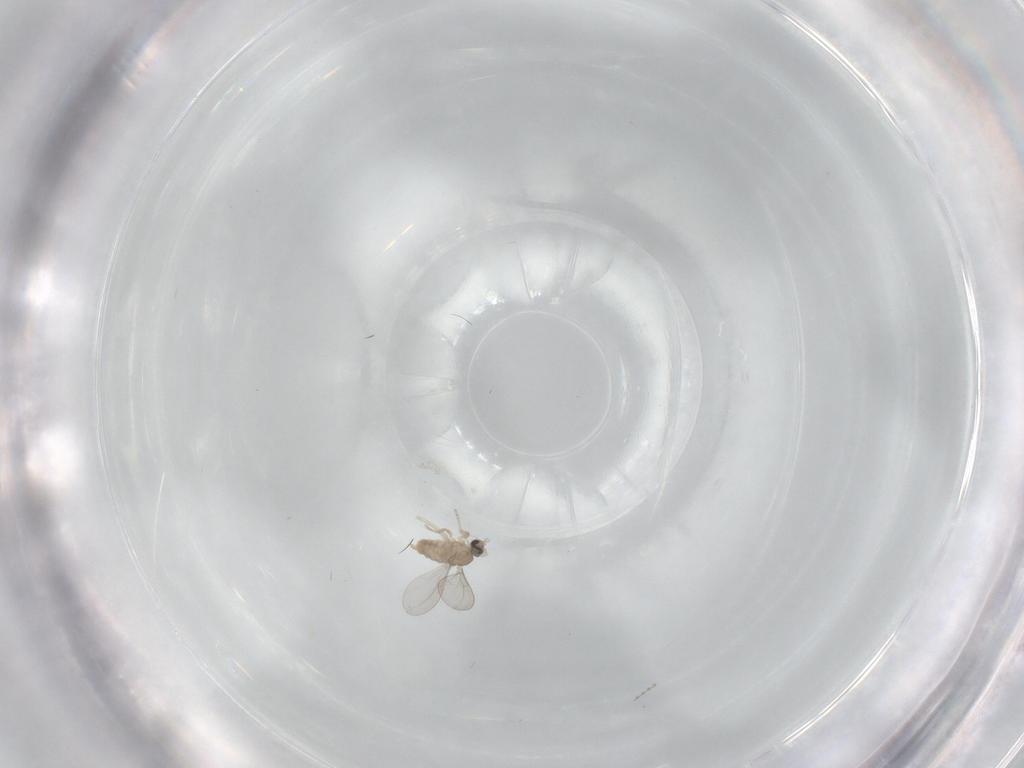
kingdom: Animalia
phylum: Arthropoda
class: Insecta
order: Diptera
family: Cecidomyiidae
